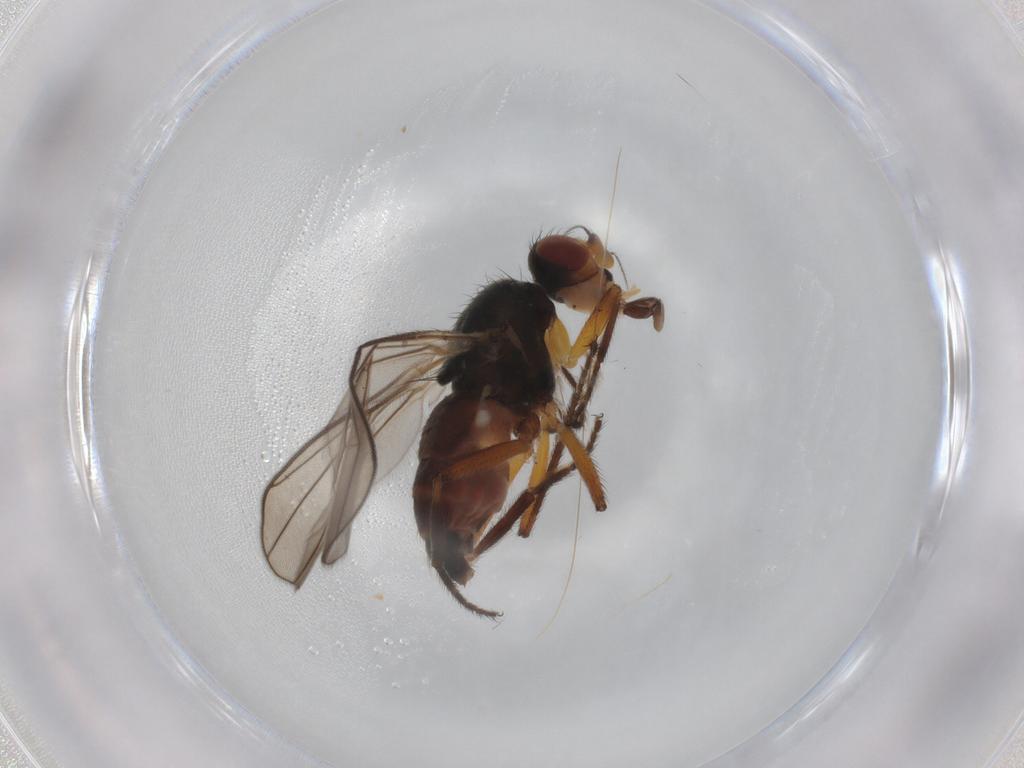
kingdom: Animalia
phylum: Arthropoda
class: Insecta
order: Diptera
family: Chloropidae
